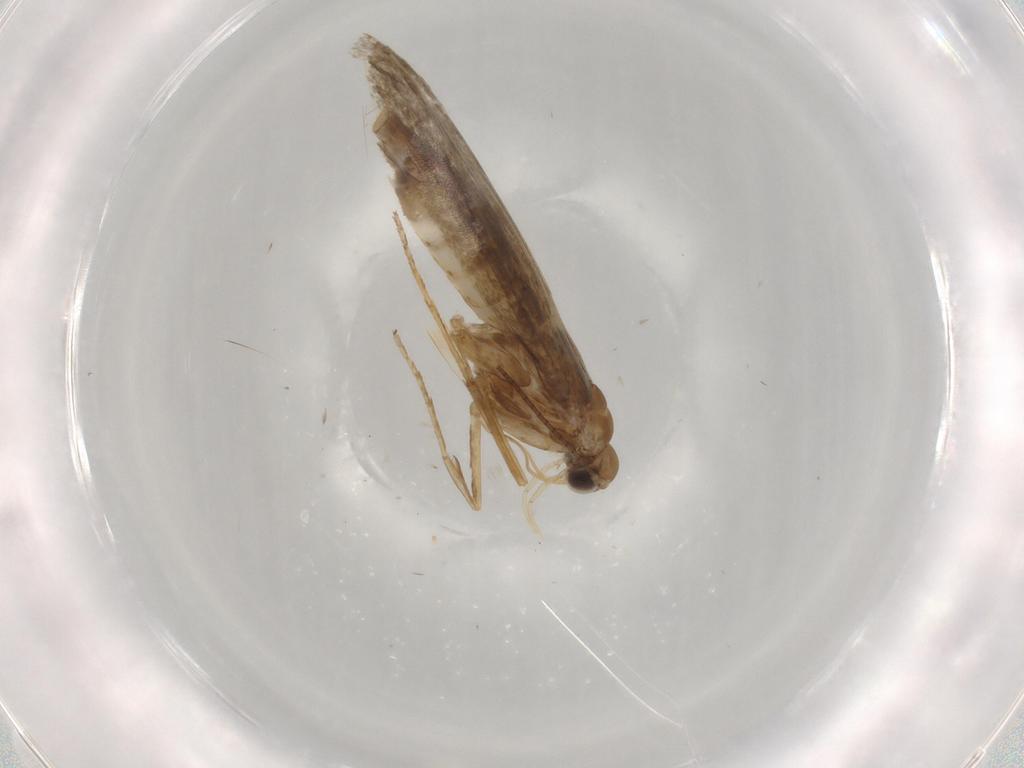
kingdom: Animalia
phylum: Arthropoda
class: Insecta
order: Lepidoptera
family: Gracillariidae
